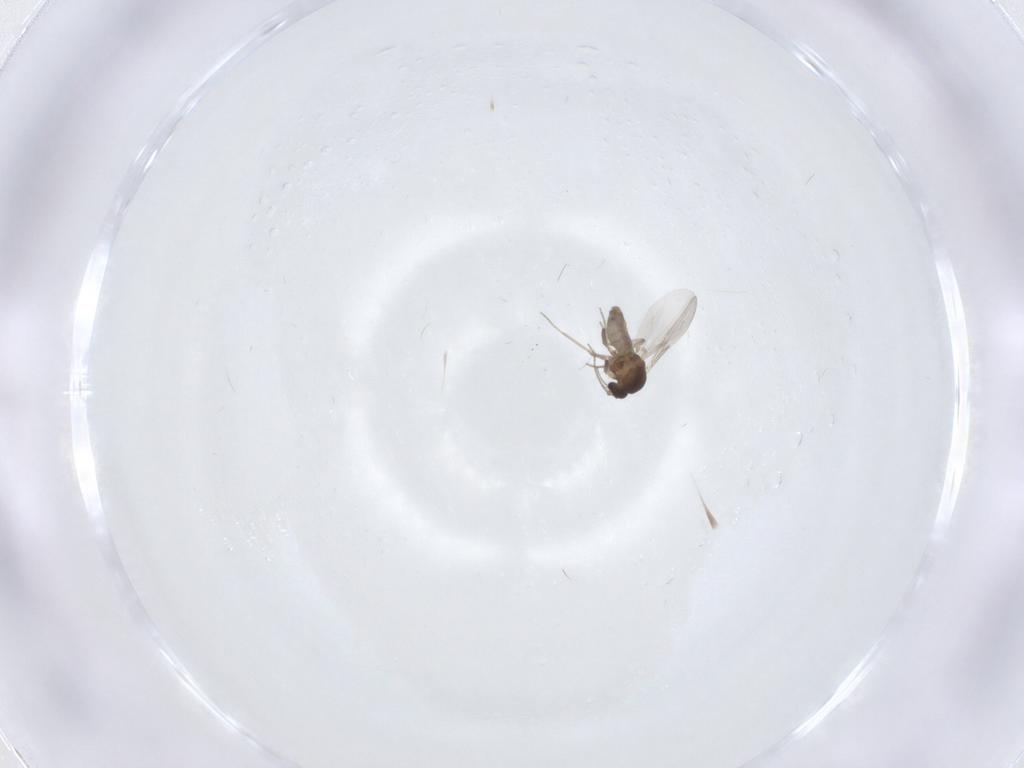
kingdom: Animalia
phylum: Arthropoda
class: Insecta
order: Diptera
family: Ceratopogonidae
